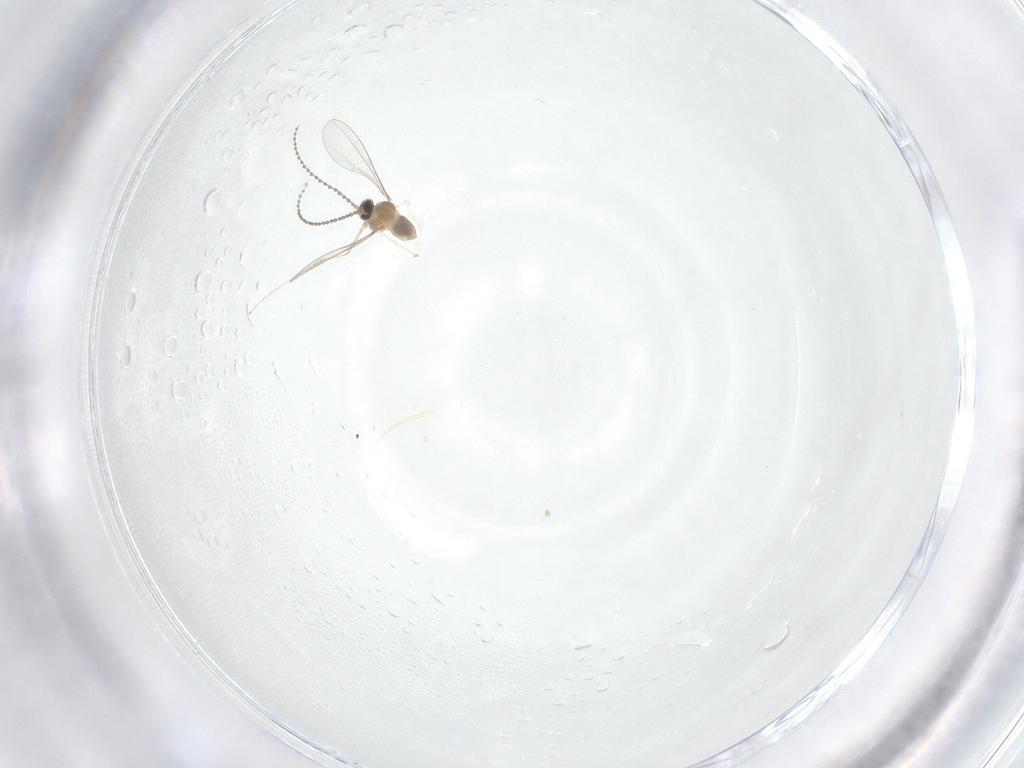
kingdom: Animalia
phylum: Arthropoda
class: Insecta
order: Diptera
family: Cecidomyiidae
